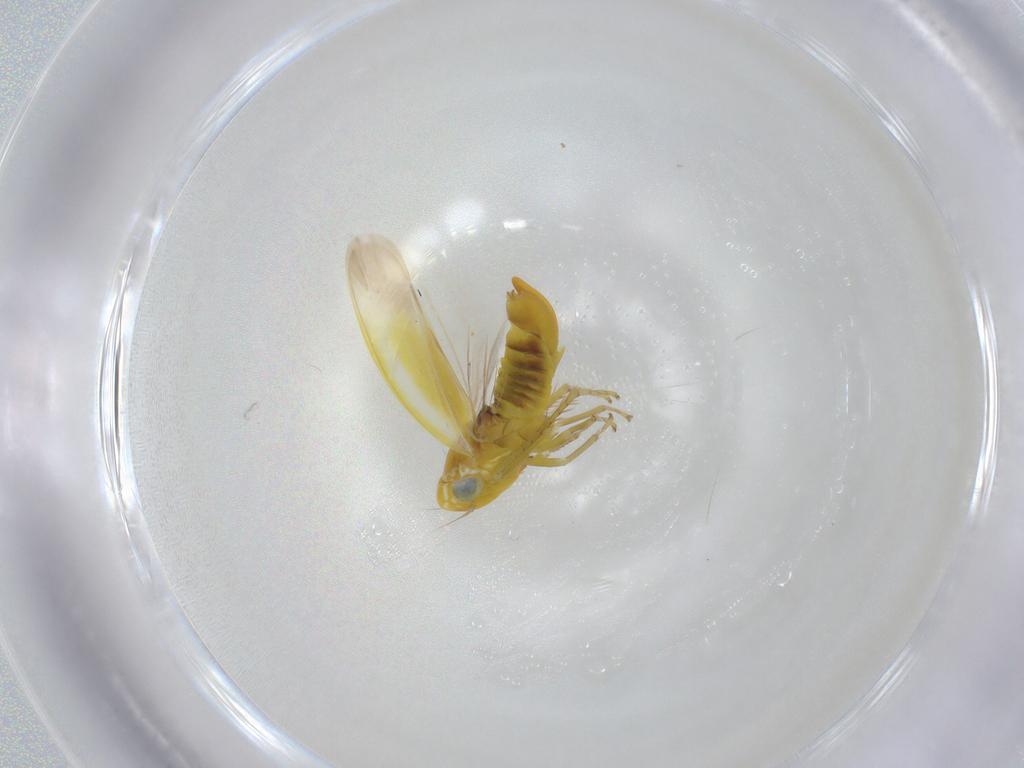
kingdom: Animalia
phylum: Arthropoda
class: Insecta
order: Hemiptera
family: Cicadellidae
